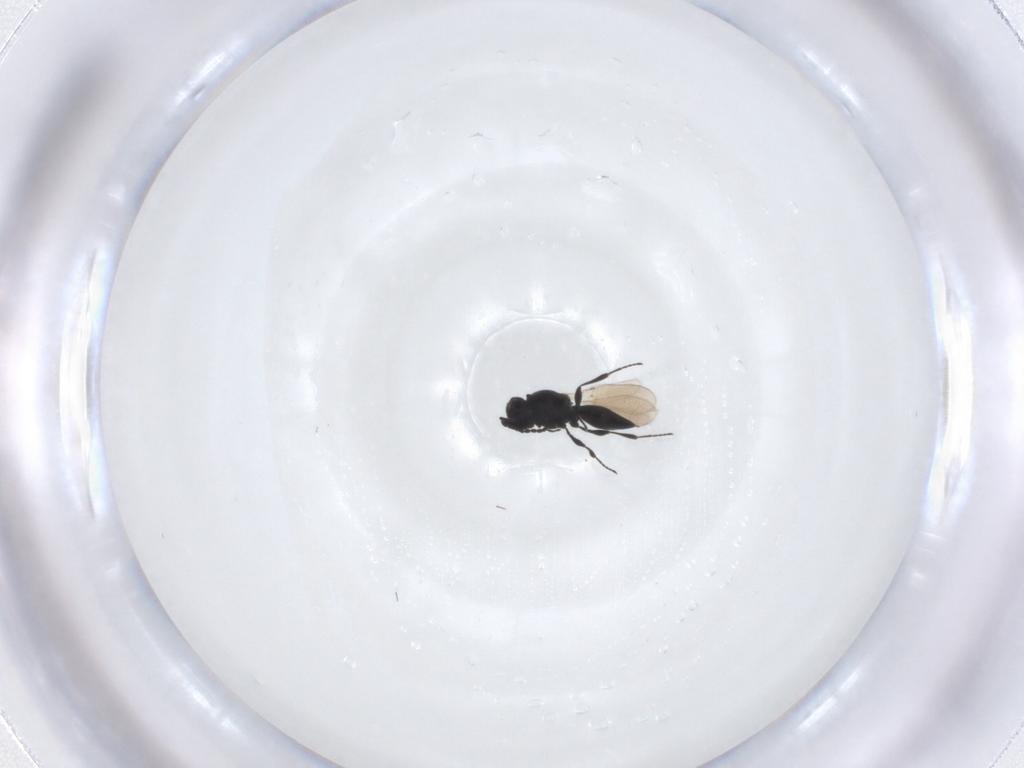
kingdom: Animalia
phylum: Arthropoda
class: Insecta
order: Hymenoptera
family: Platygastridae
